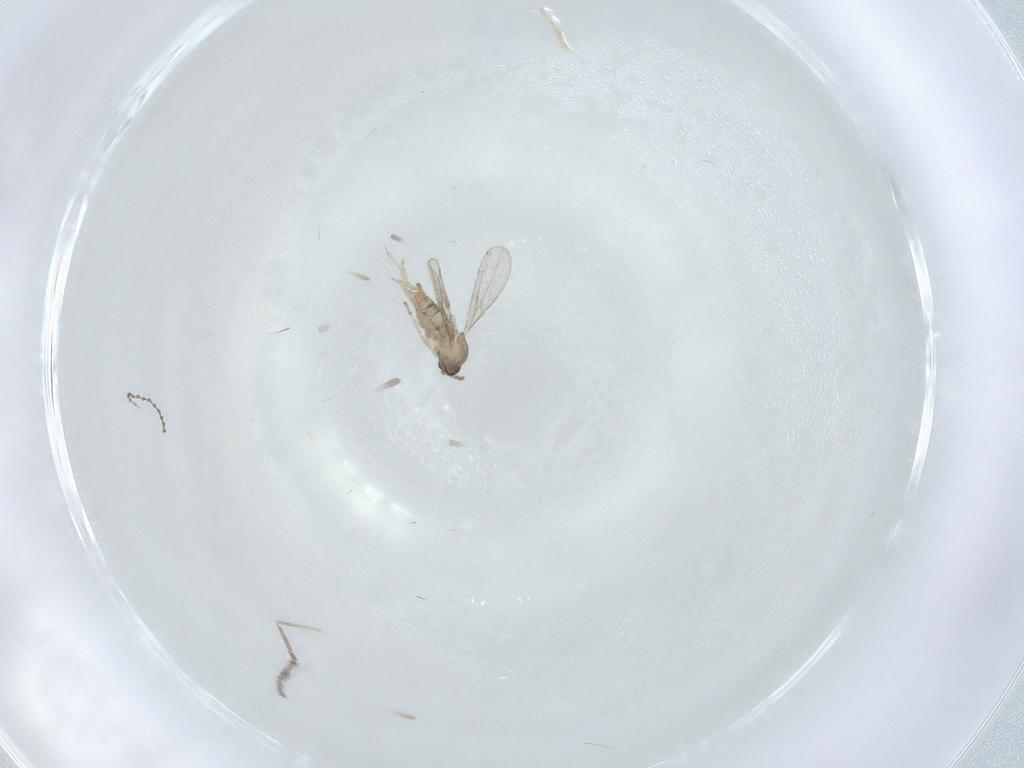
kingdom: Animalia
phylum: Arthropoda
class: Insecta
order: Diptera
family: Cecidomyiidae
